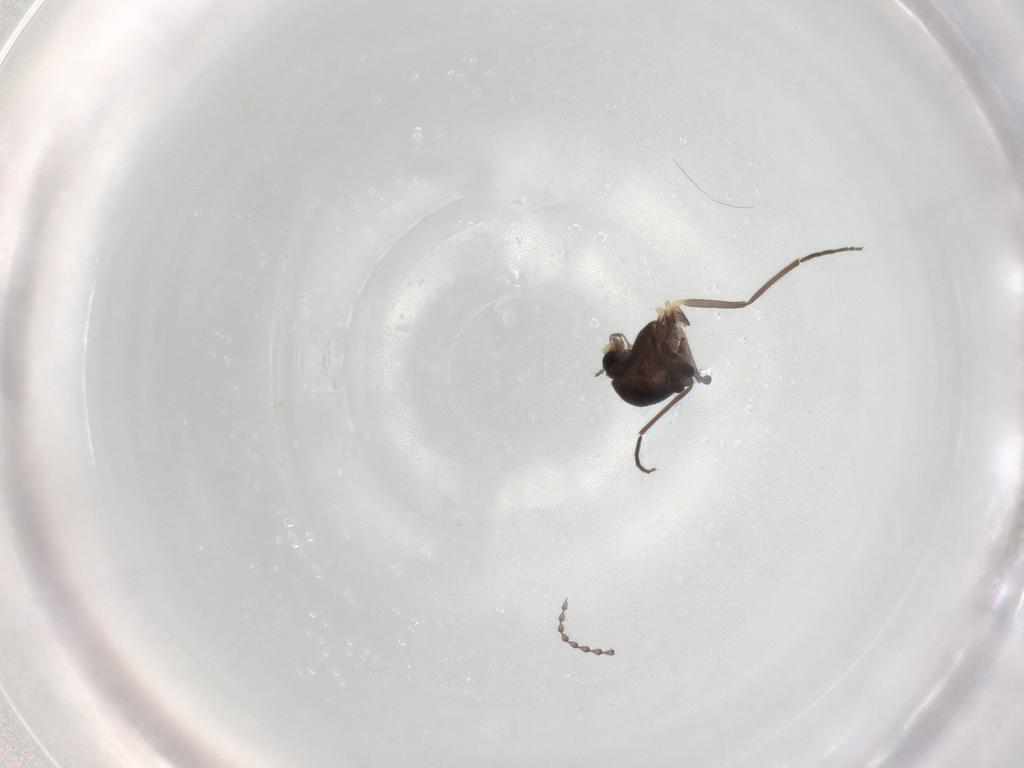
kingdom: Animalia
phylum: Arthropoda
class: Insecta
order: Diptera
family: Chironomidae
